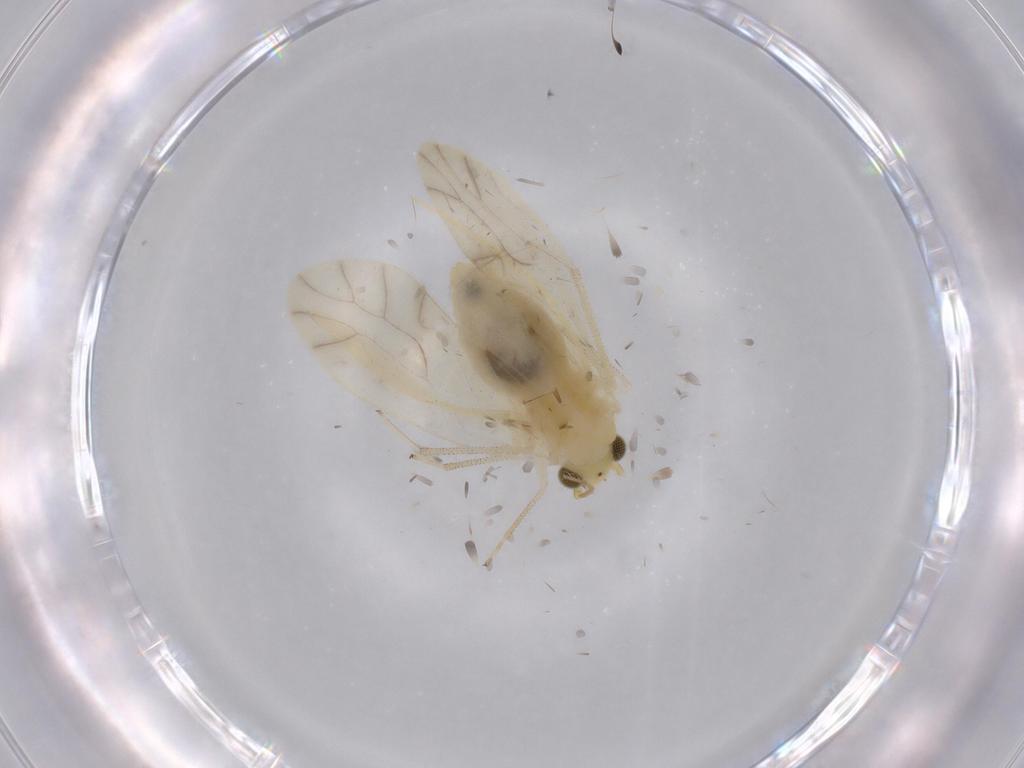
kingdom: Animalia
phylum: Arthropoda
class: Insecta
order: Psocodea
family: Caeciliusidae
